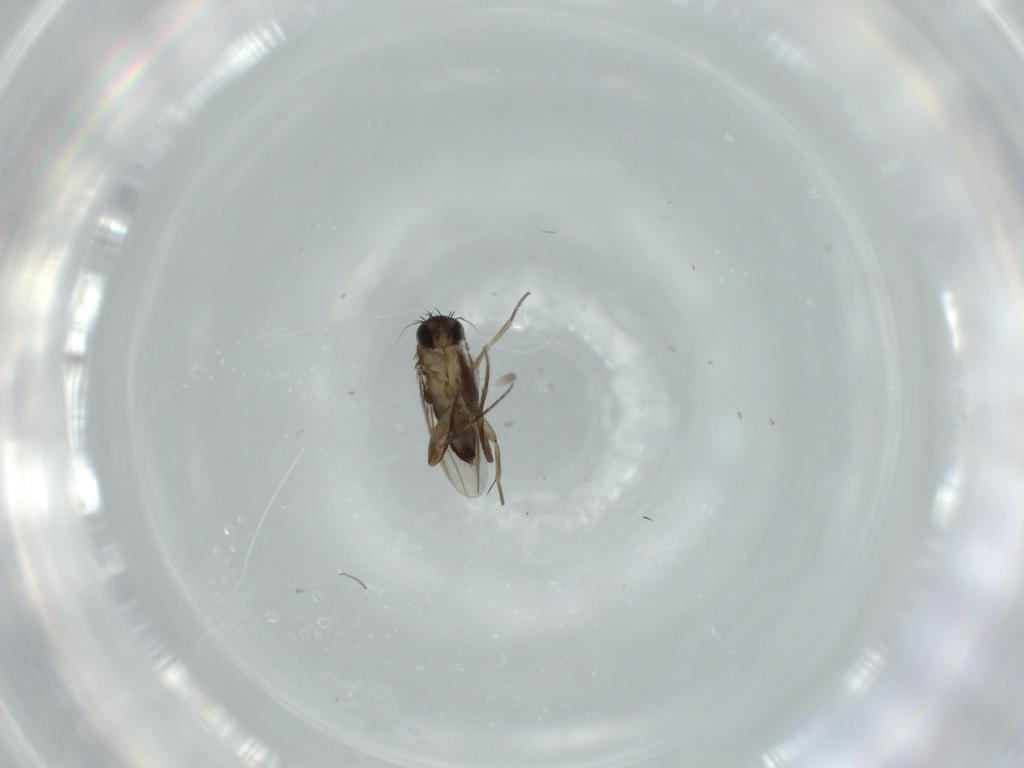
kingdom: Animalia
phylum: Arthropoda
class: Insecta
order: Diptera
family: Phoridae
